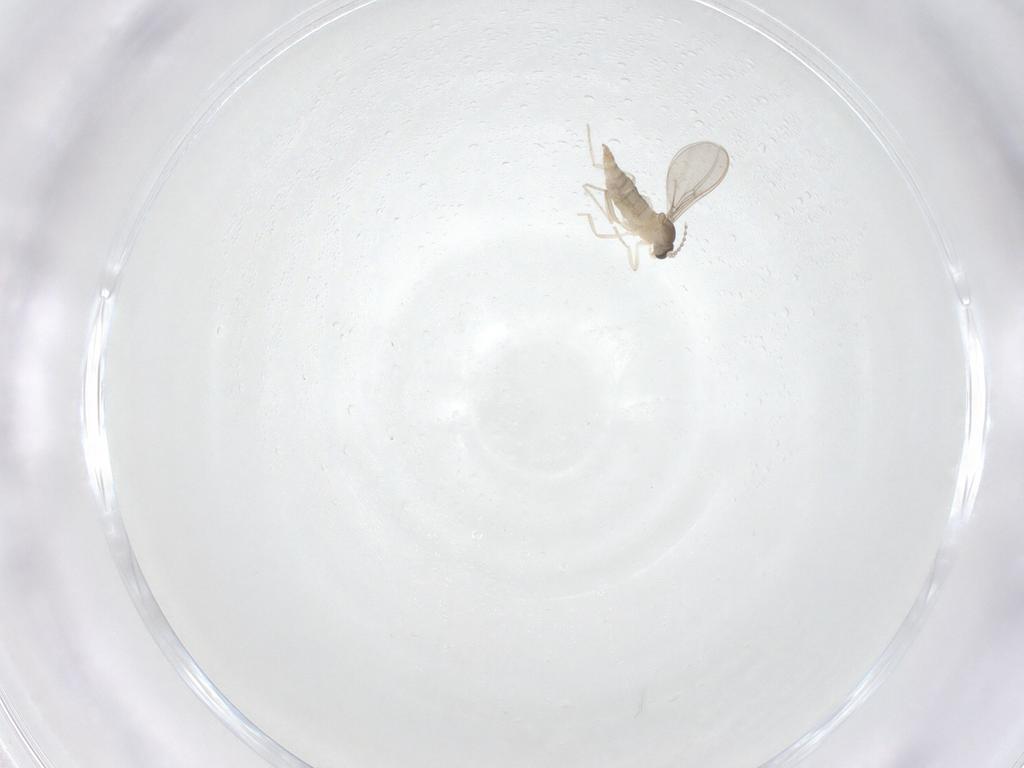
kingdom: Animalia
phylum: Arthropoda
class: Insecta
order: Diptera
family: Cecidomyiidae
